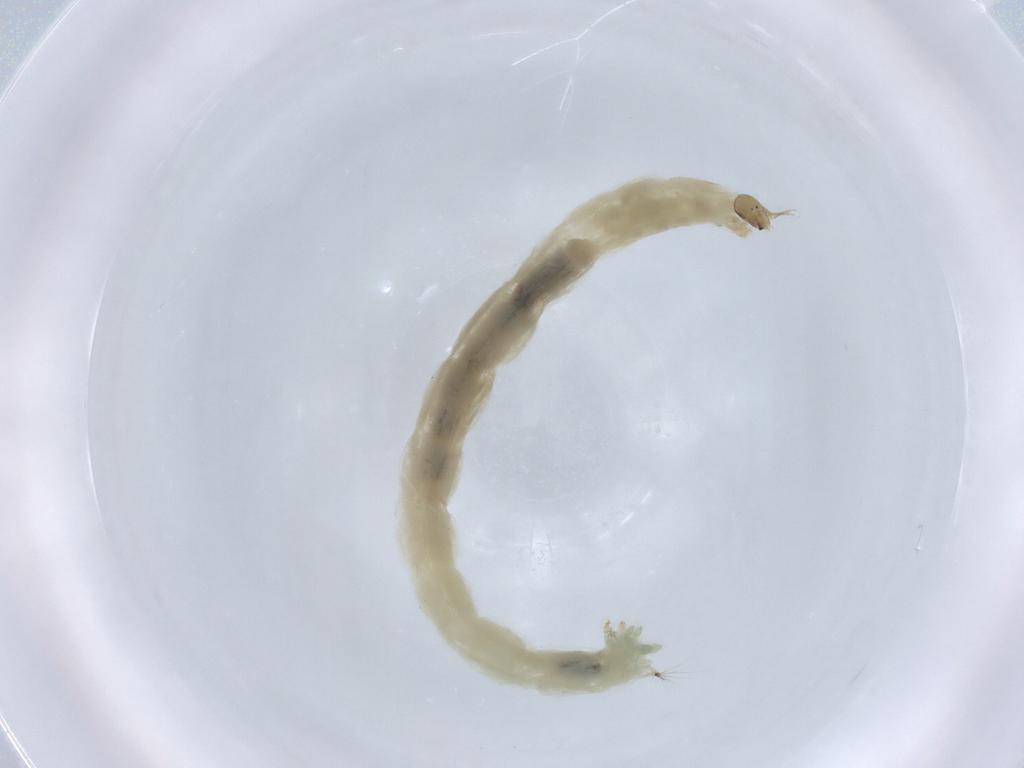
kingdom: Animalia
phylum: Arthropoda
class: Insecta
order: Diptera
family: Chironomidae
